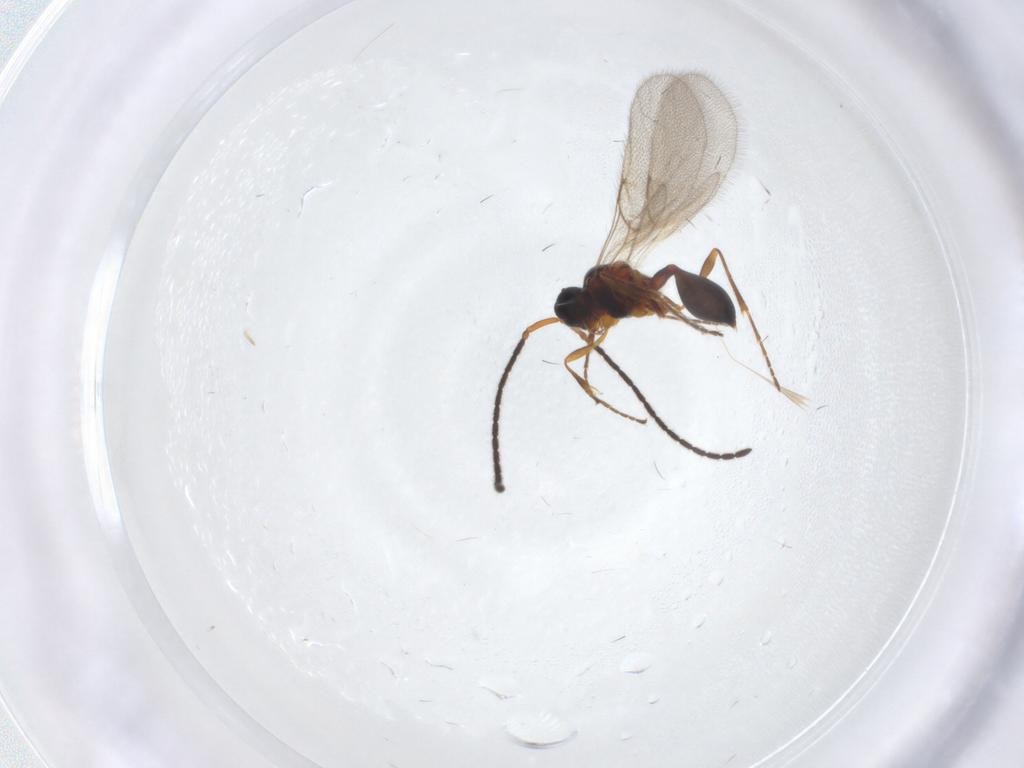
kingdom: Animalia
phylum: Arthropoda
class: Insecta
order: Hymenoptera
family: Diapriidae
